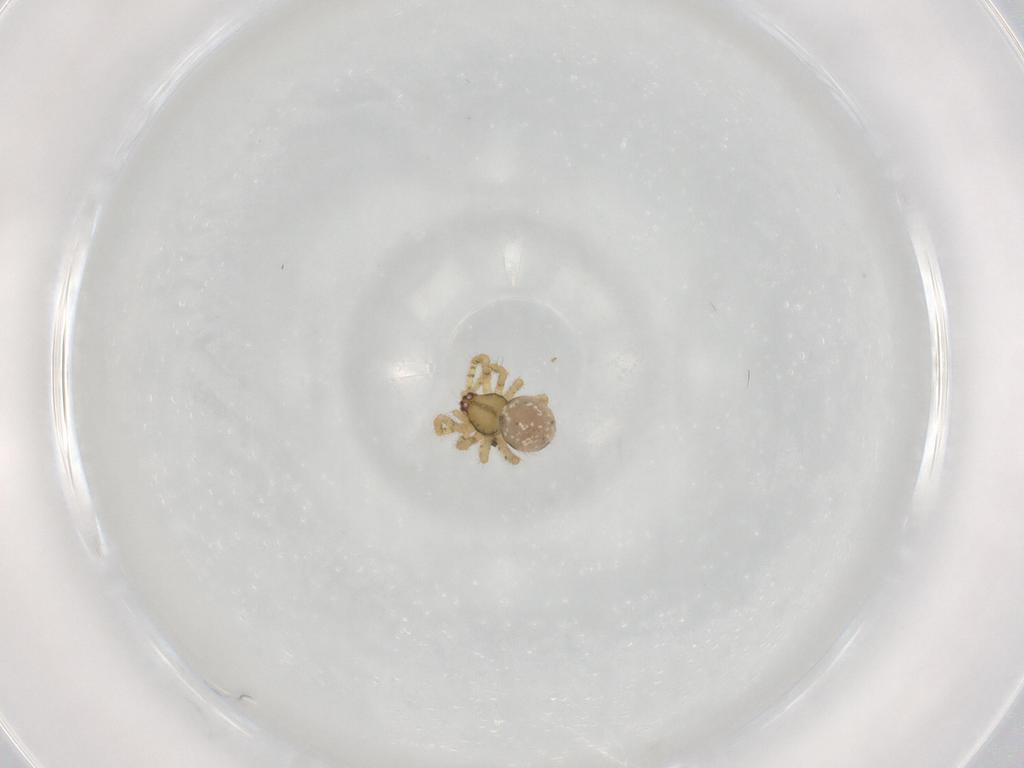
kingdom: Animalia
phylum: Arthropoda
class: Arachnida
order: Araneae
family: Theridiidae
